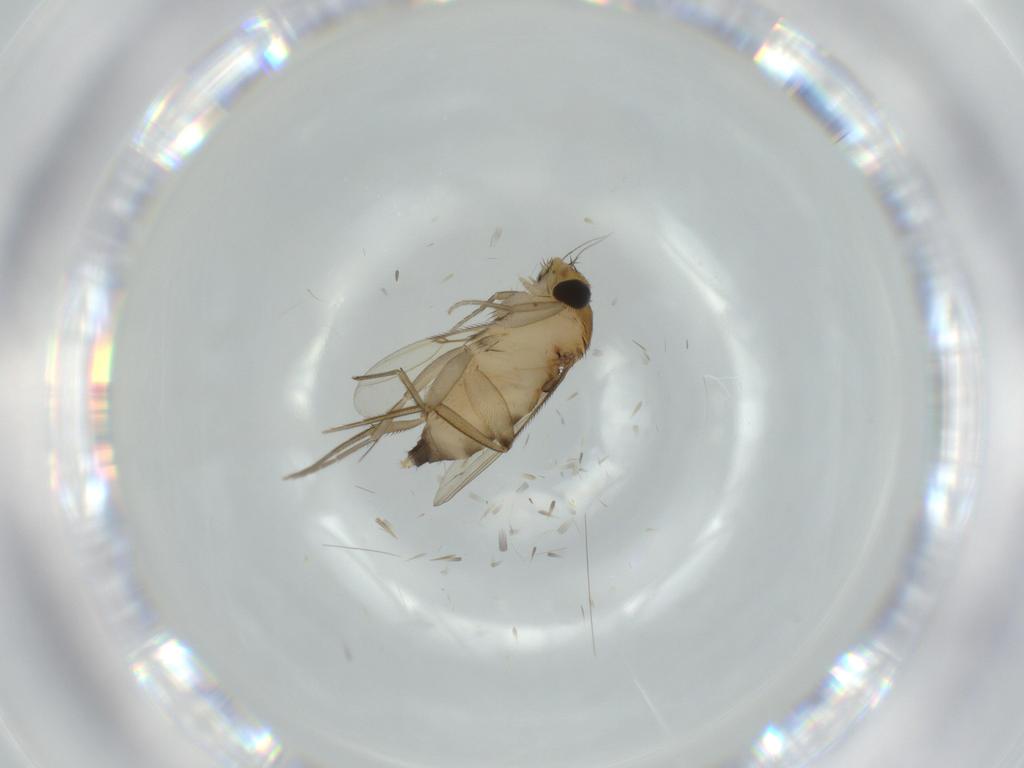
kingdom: Animalia
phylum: Arthropoda
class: Insecta
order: Diptera
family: Phoridae
